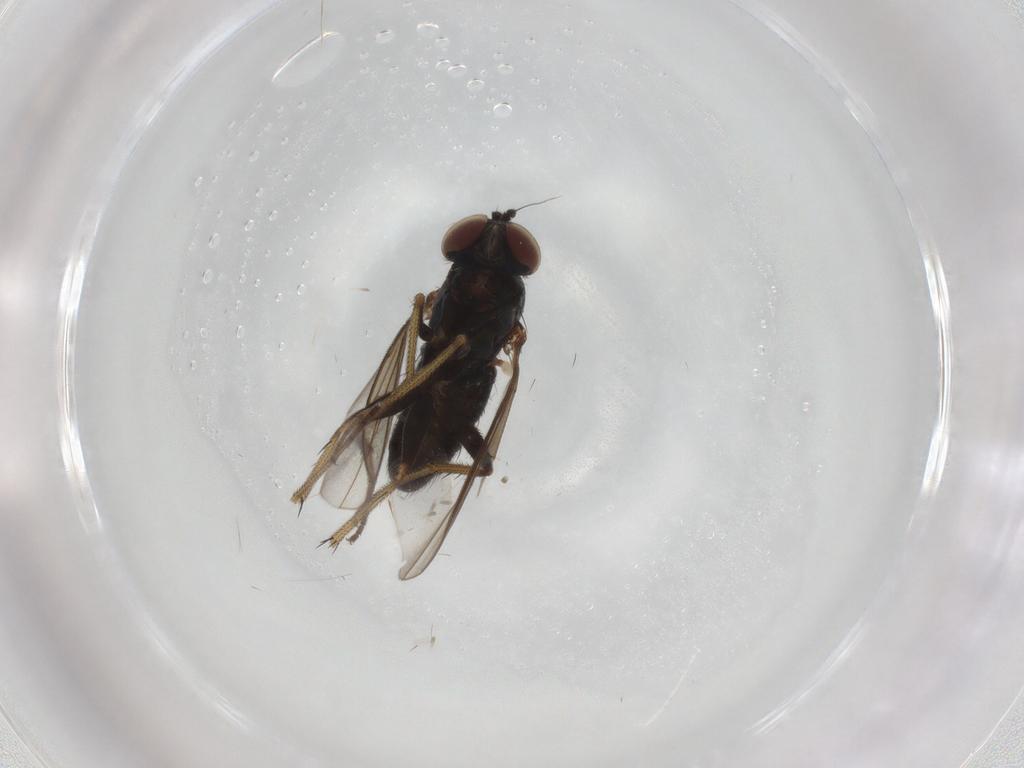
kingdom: Animalia
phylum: Arthropoda
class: Insecta
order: Diptera
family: Dolichopodidae
